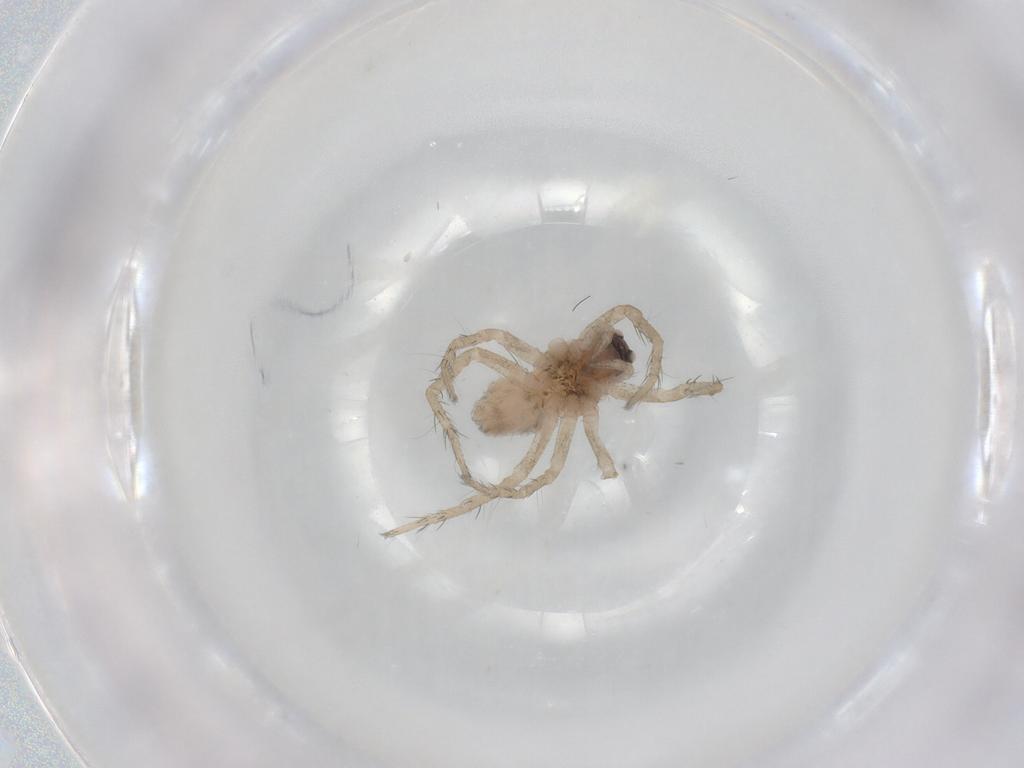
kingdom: Animalia
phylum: Arthropoda
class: Arachnida
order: Araneae
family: Lycosidae
